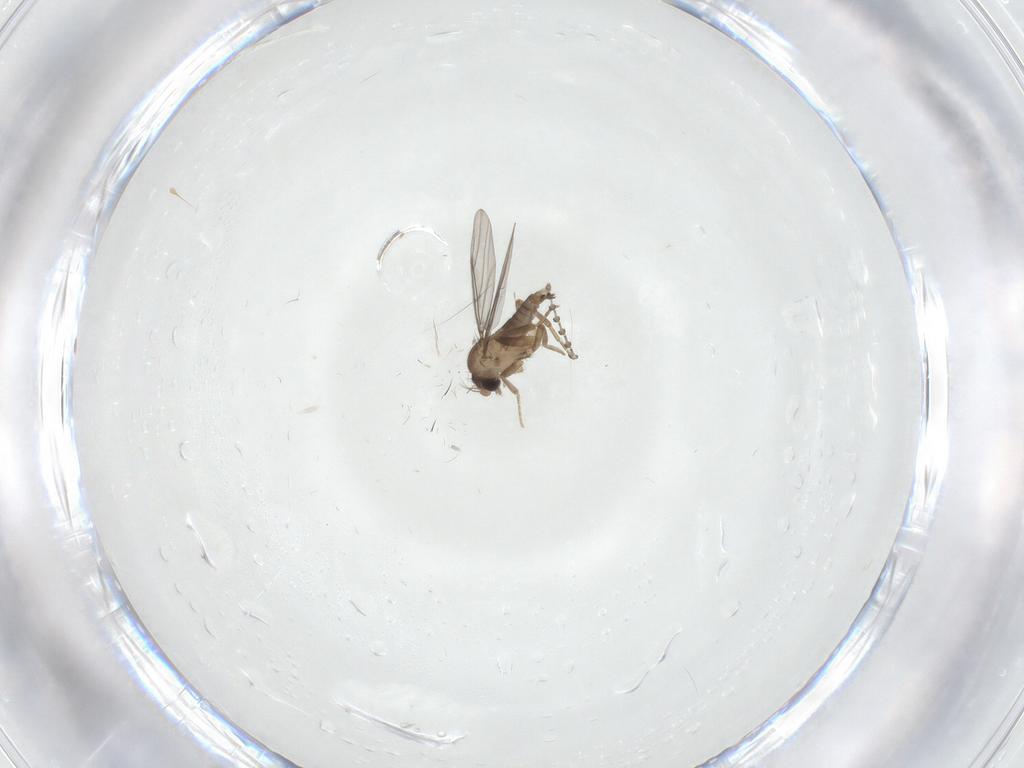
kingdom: Animalia
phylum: Arthropoda
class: Insecta
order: Diptera
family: Psychodidae
